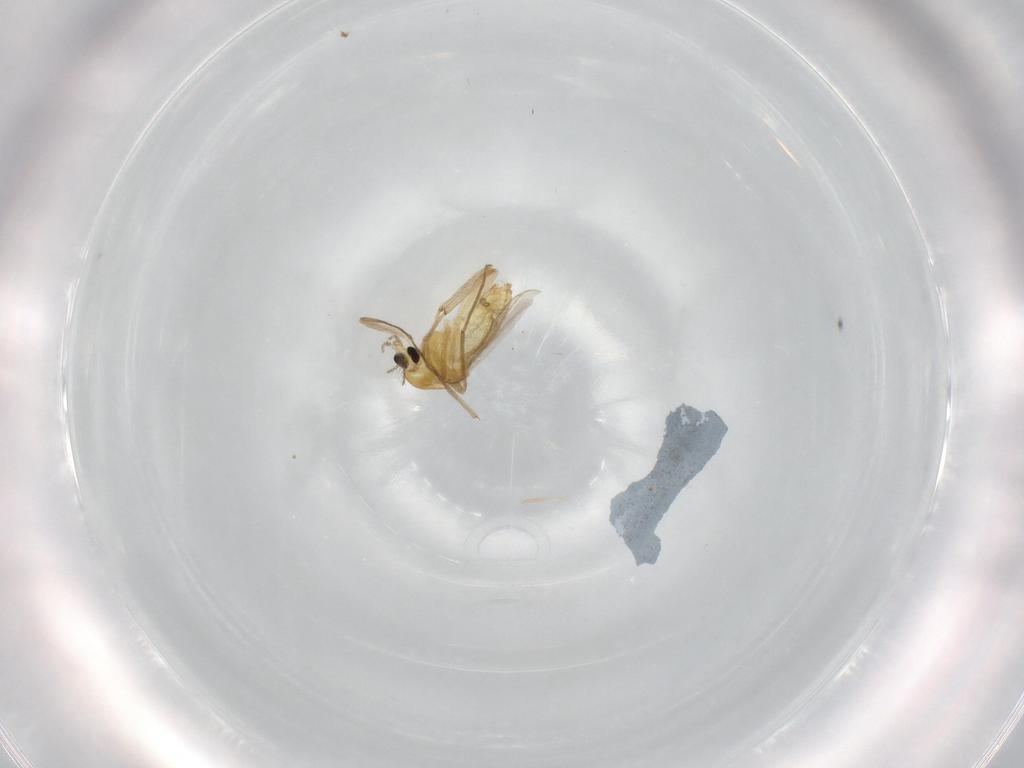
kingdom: Animalia
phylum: Arthropoda
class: Insecta
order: Diptera
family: Chironomidae
